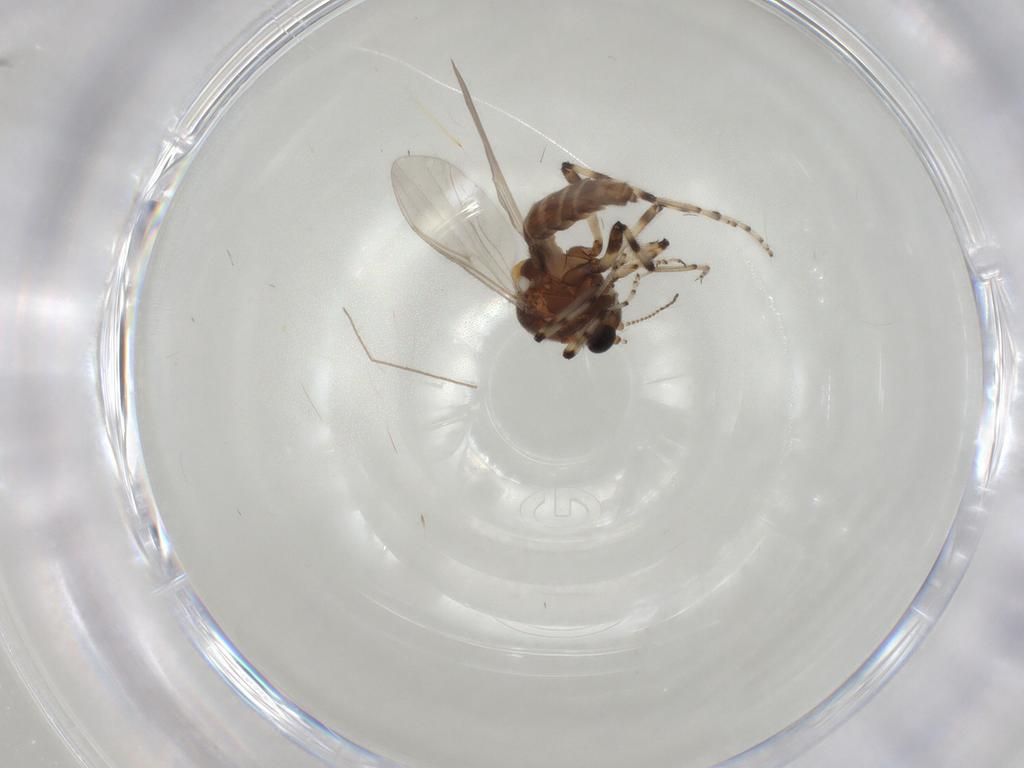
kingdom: Animalia
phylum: Arthropoda
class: Insecta
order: Diptera
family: Ceratopogonidae
